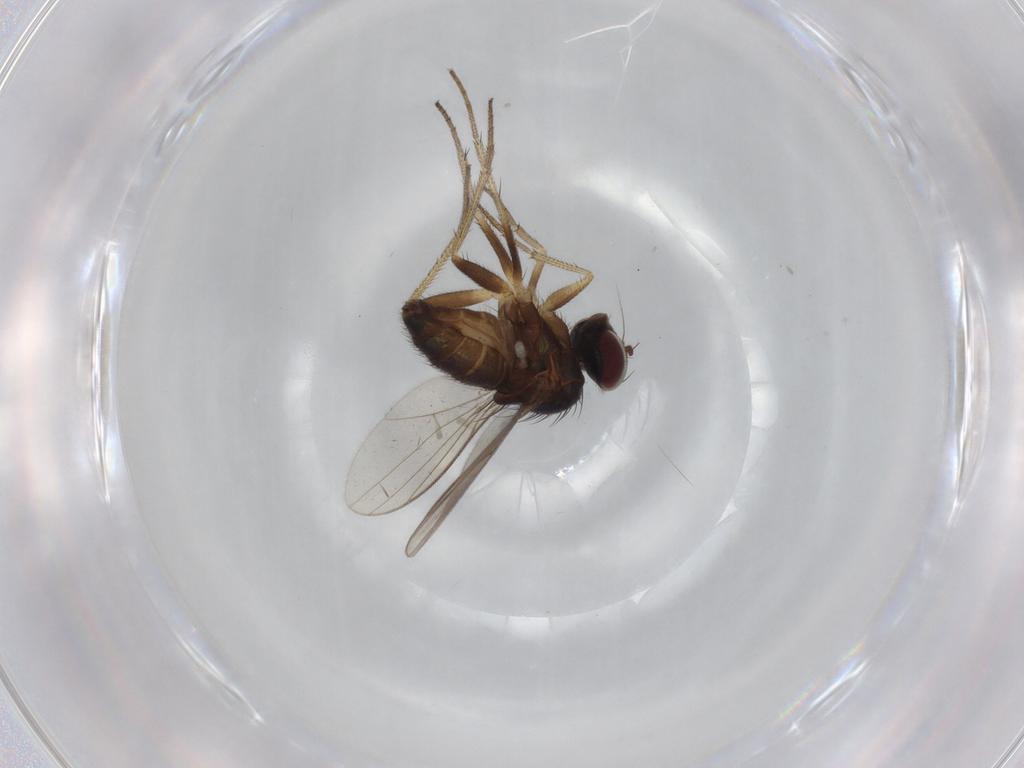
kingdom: Animalia
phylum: Arthropoda
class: Insecta
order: Diptera
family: Dolichopodidae
